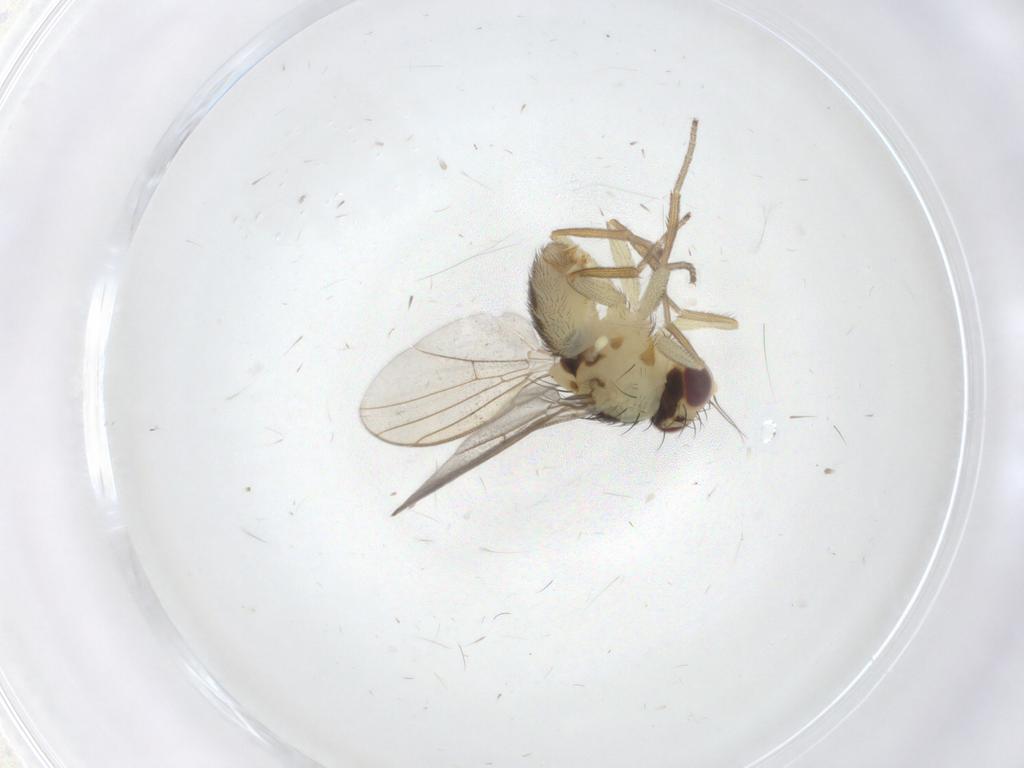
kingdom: Animalia
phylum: Arthropoda
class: Insecta
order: Diptera
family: Agromyzidae
